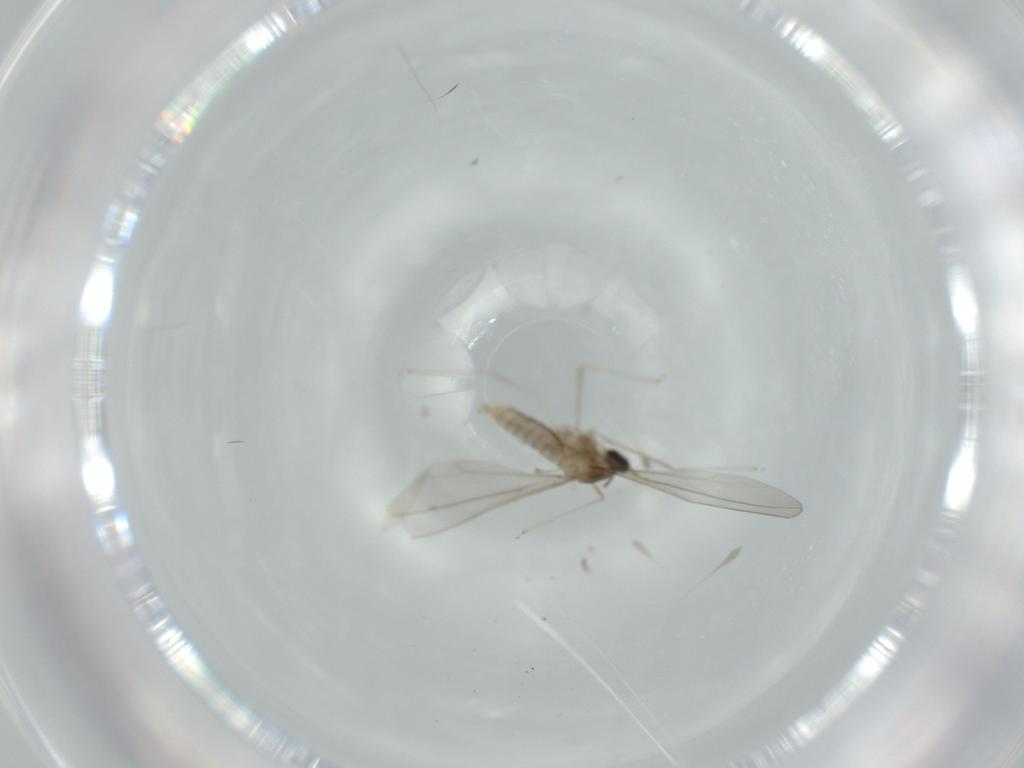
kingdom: Animalia
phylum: Arthropoda
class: Insecta
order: Diptera
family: Cecidomyiidae
